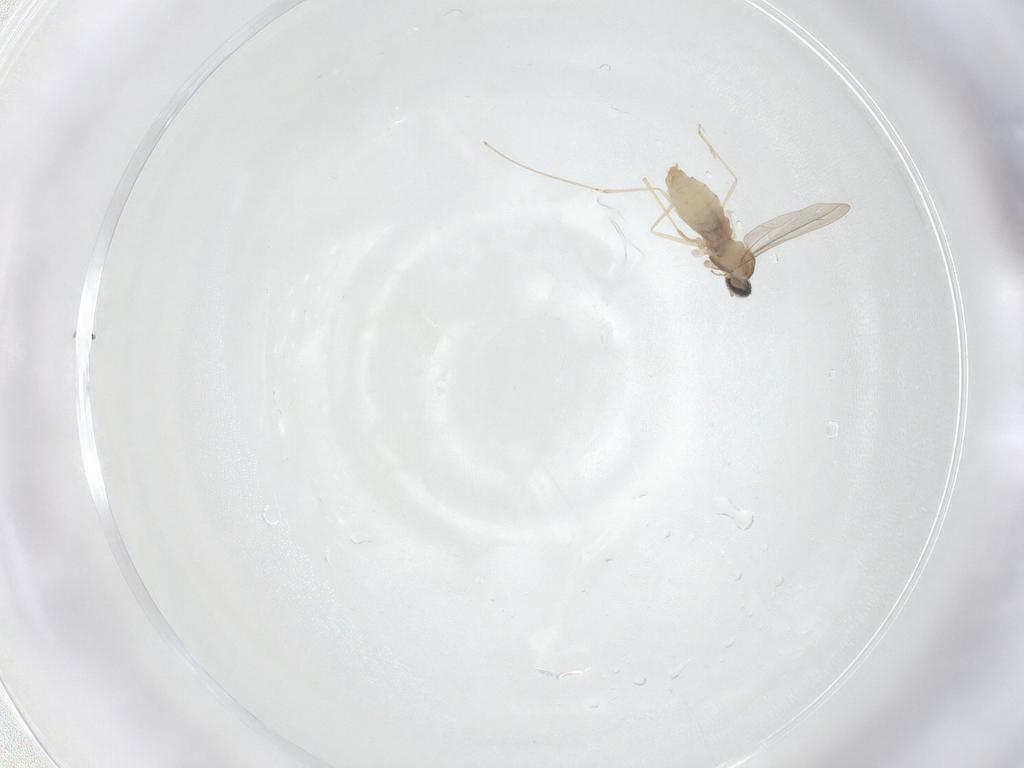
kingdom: Animalia
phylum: Arthropoda
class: Insecta
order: Diptera
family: Cecidomyiidae
